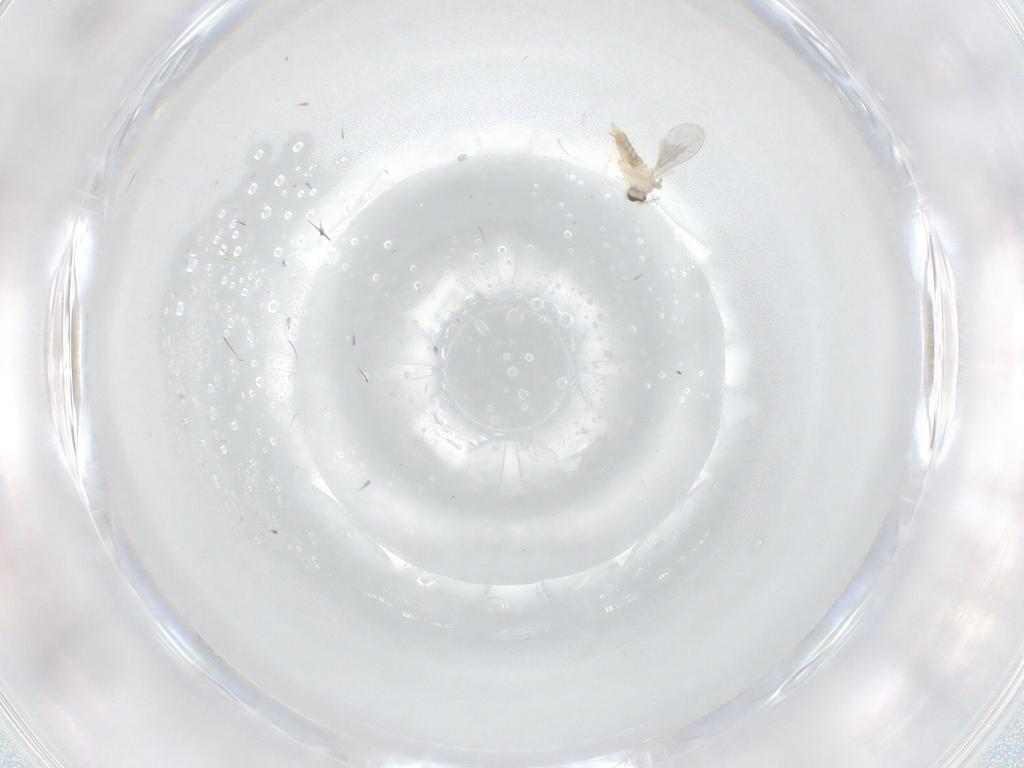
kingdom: Animalia
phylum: Arthropoda
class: Insecta
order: Diptera
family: Cecidomyiidae
